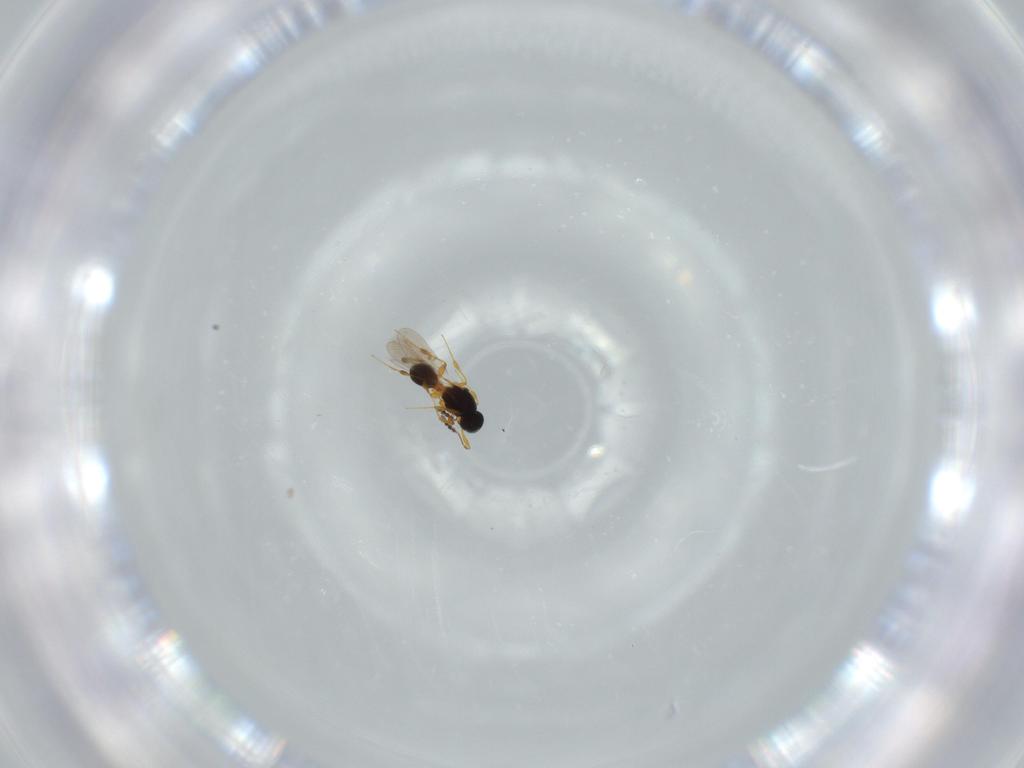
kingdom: Animalia
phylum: Arthropoda
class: Insecta
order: Hymenoptera
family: Platygastridae
